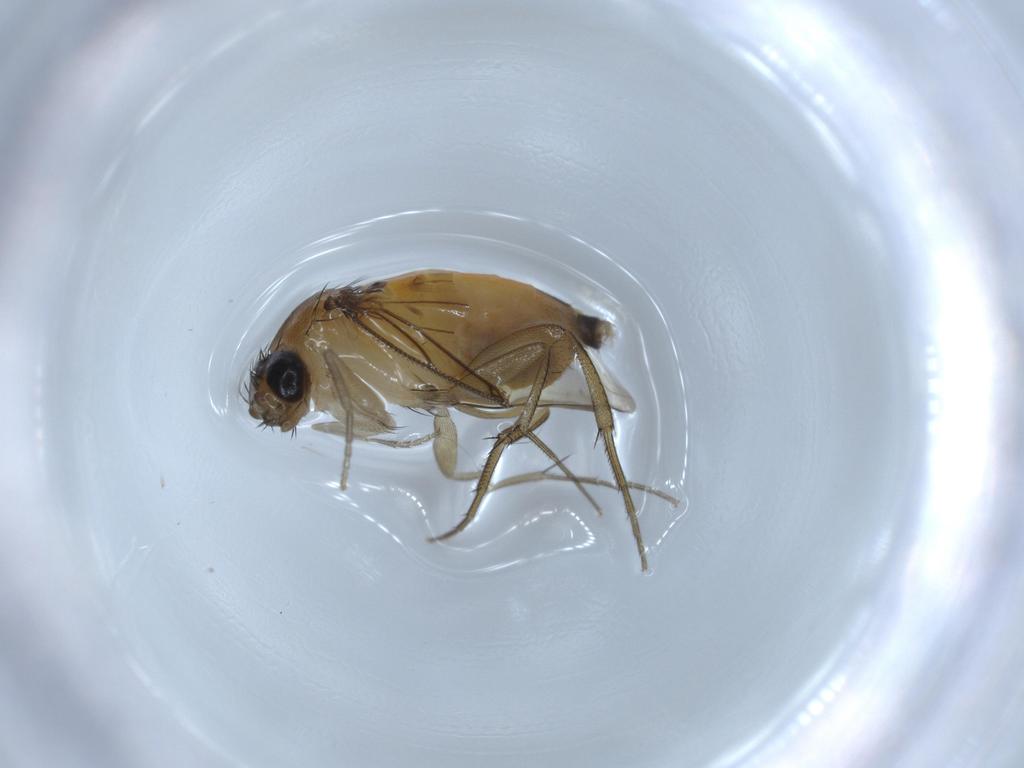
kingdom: Animalia
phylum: Arthropoda
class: Insecta
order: Diptera
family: Phoridae
